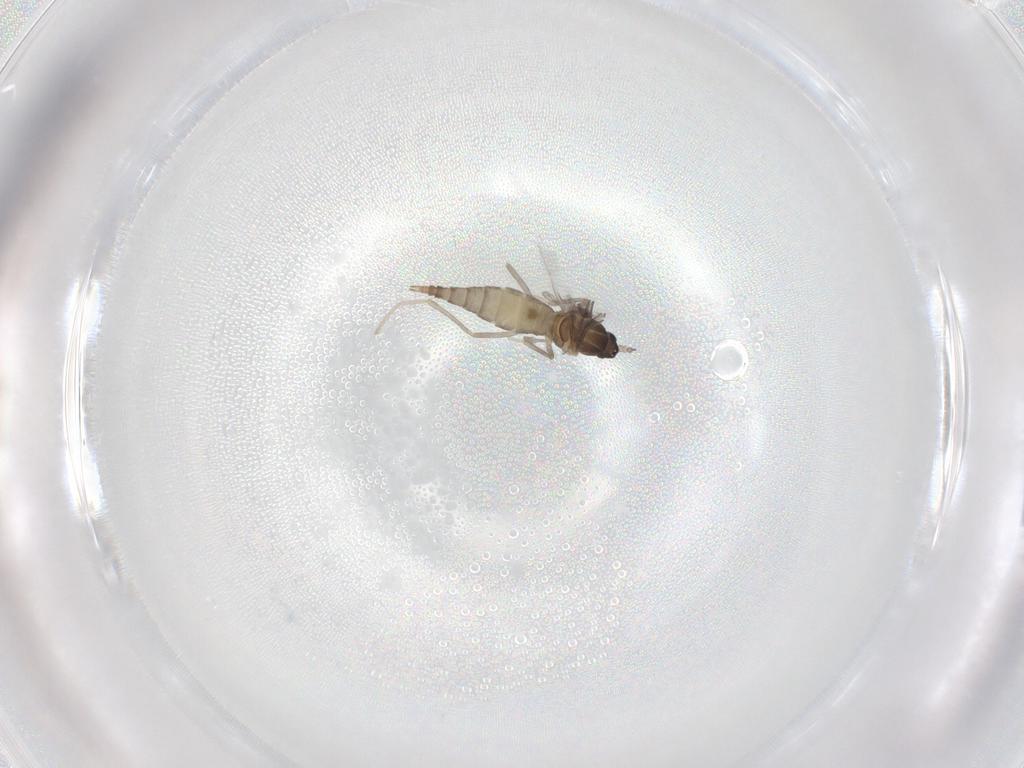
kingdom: Animalia
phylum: Arthropoda
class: Insecta
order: Diptera
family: Cecidomyiidae
